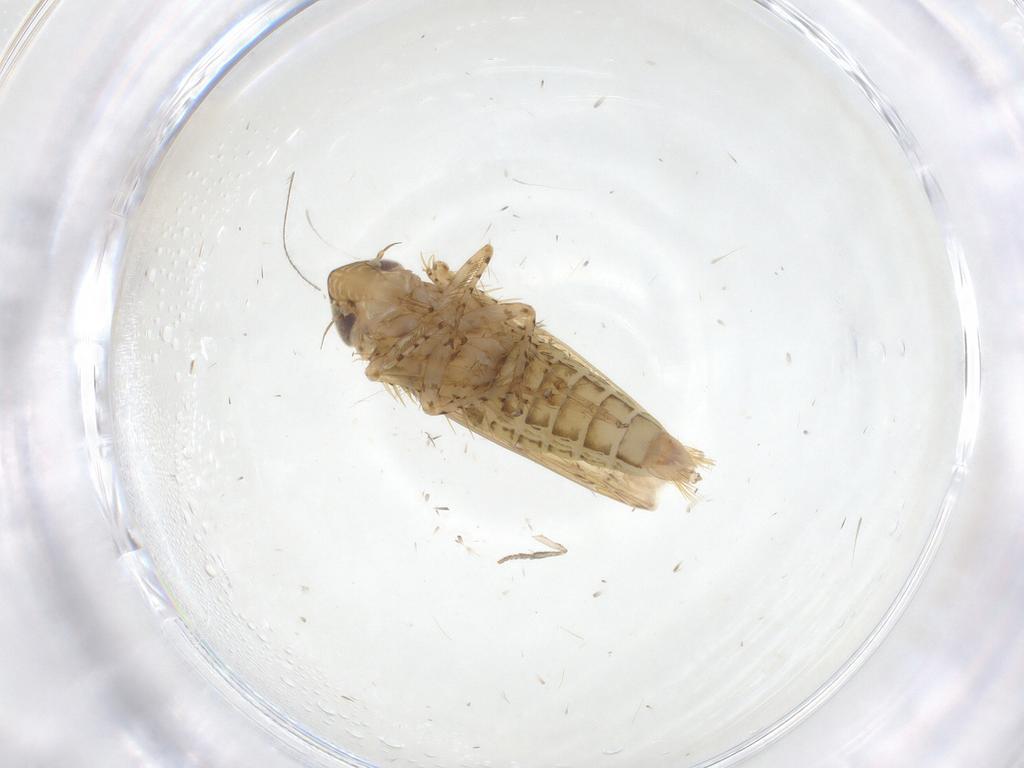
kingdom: Animalia
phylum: Arthropoda
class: Insecta
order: Hemiptera
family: Cicadellidae
